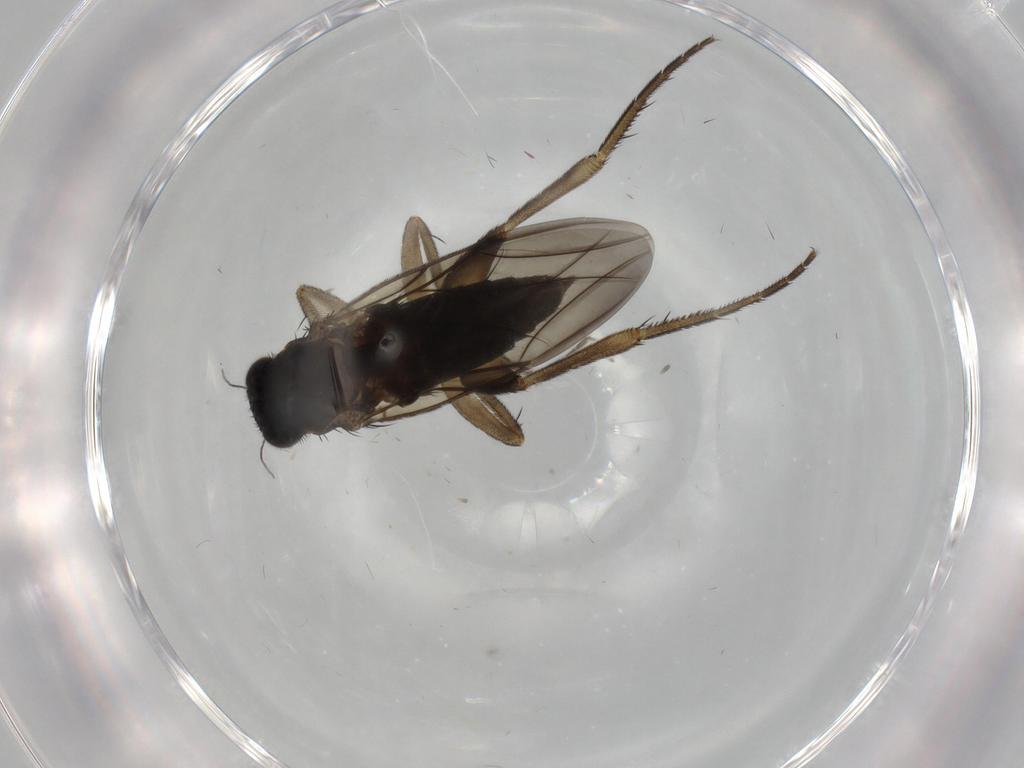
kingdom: Animalia
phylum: Arthropoda
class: Insecta
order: Diptera
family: Phoridae
